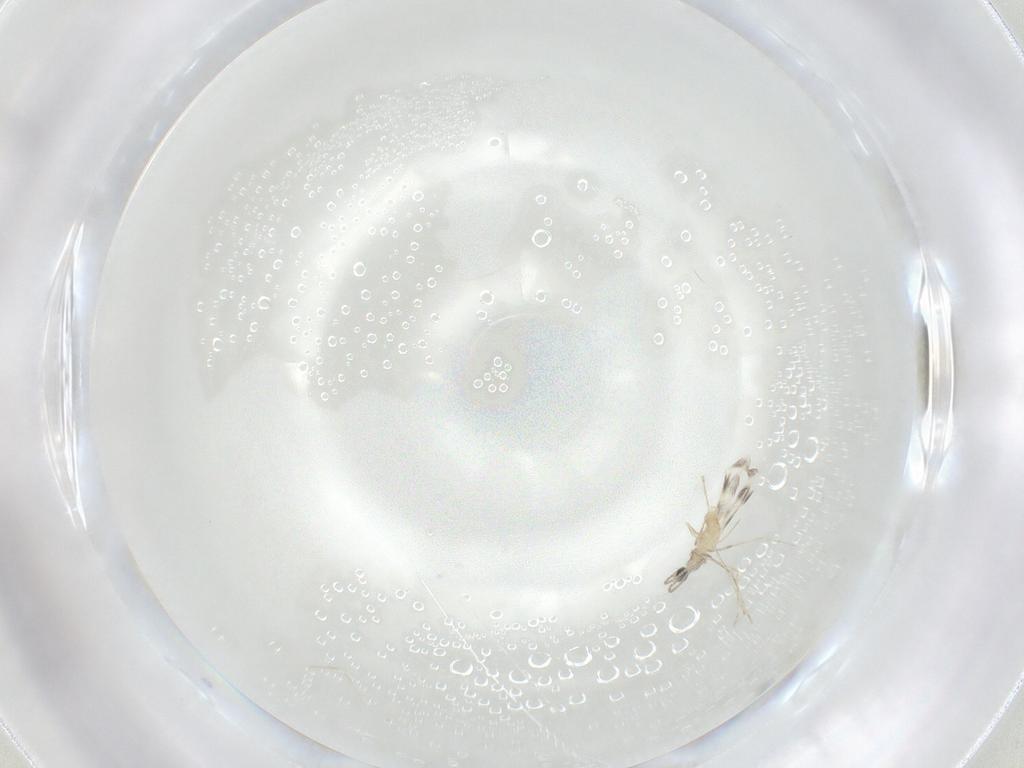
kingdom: Animalia
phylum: Arthropoda
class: Insecta
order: Diptera
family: Cecidomyiidae
